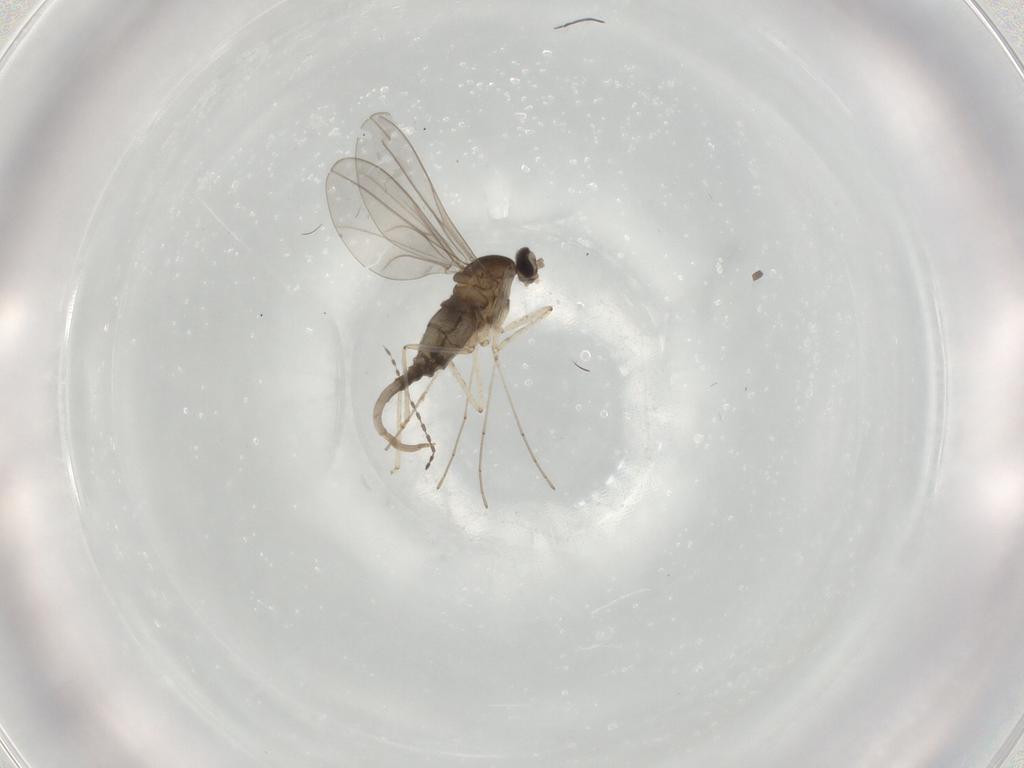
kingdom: Animalia
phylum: Arthropoda
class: Insecta
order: Diptera
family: Cecidomyiidae
